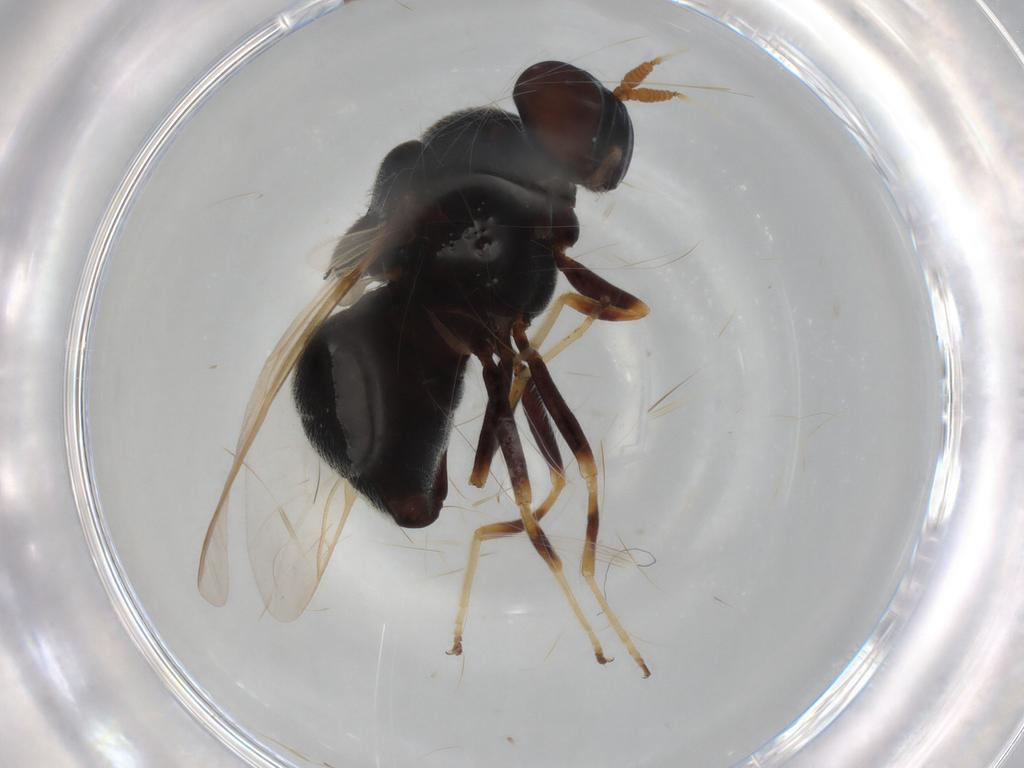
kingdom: Animalia
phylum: Arthropoda
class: Insecta
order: Diptera
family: Stratiomyidae
